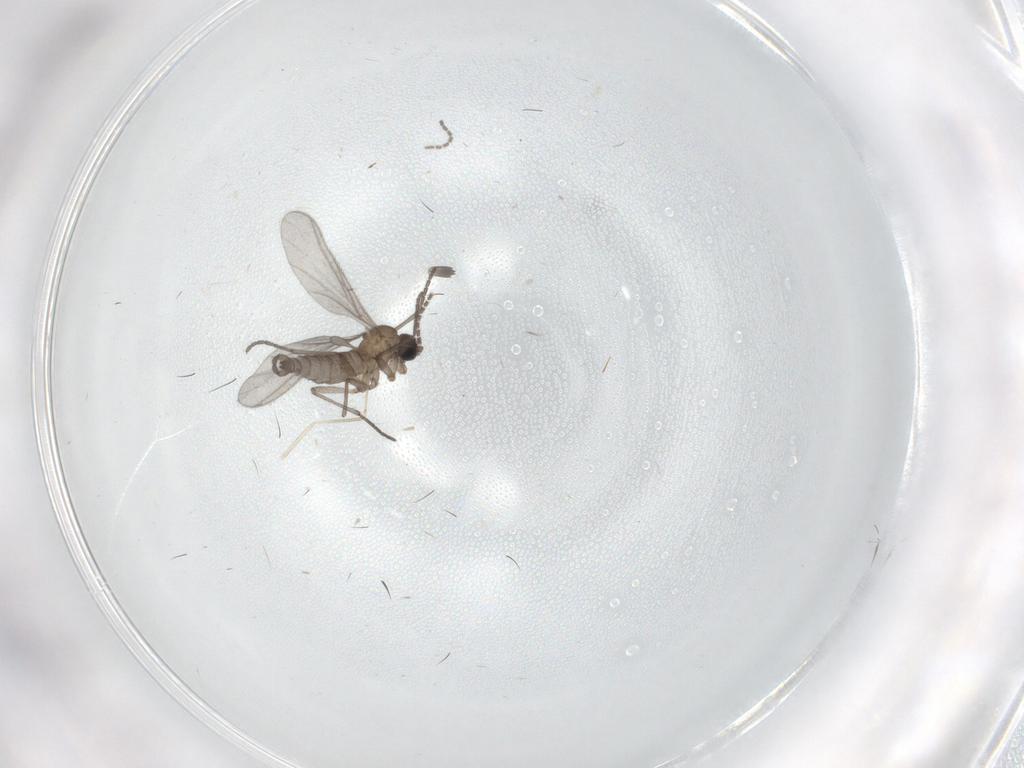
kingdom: Animalia
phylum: Arthropoda
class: Insecta
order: Diptera
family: Sciaridae
